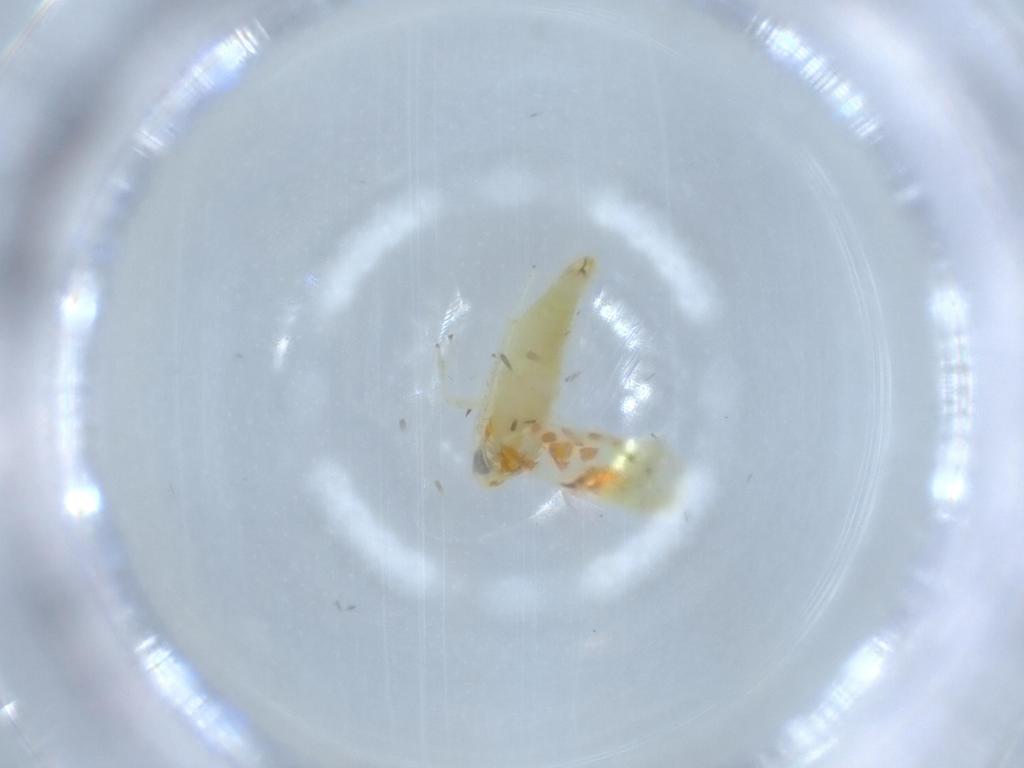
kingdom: Animalia
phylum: Arthropoda
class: Insecta
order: Hemiptera
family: Cicadellidae
